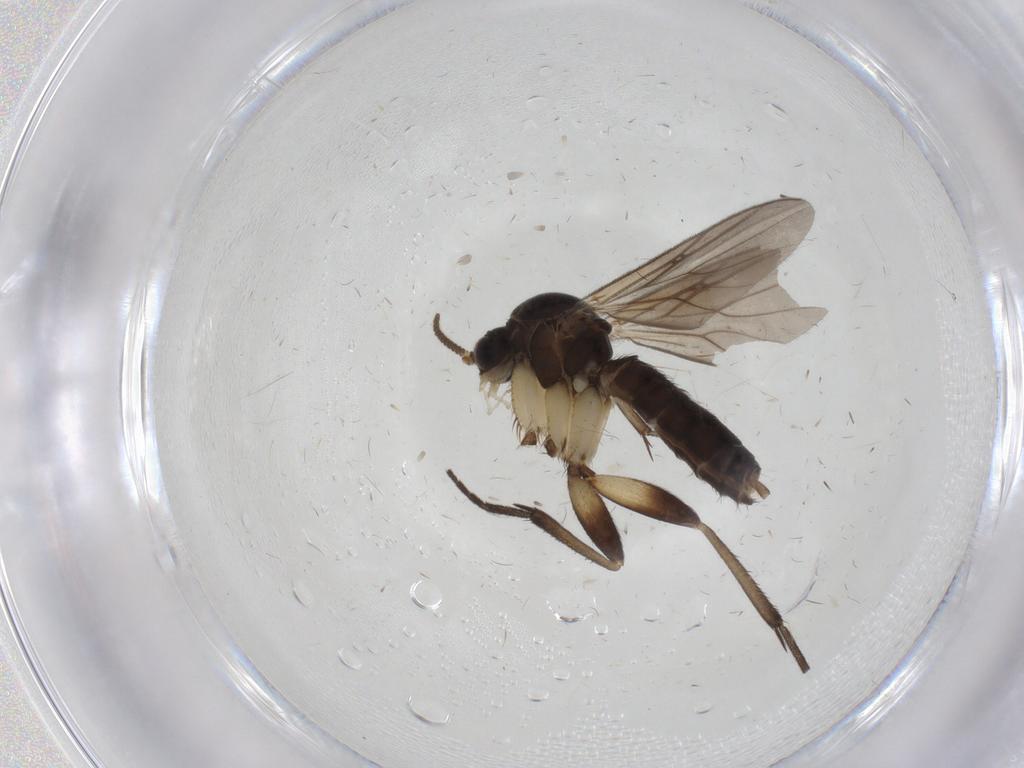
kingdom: Animalia
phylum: Arthropoda
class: Insecta
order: Diptera
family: Mycetophilidae
